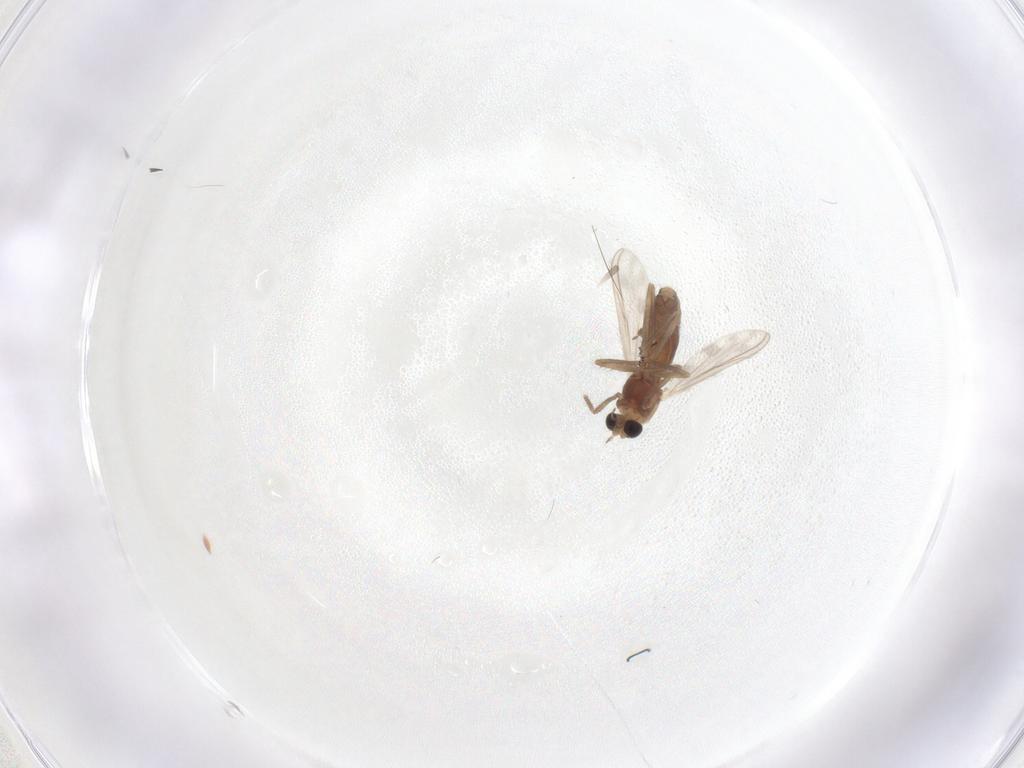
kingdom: Animalia
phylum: Arthropoda
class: Insecta
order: Diptera
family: Chironomidae
